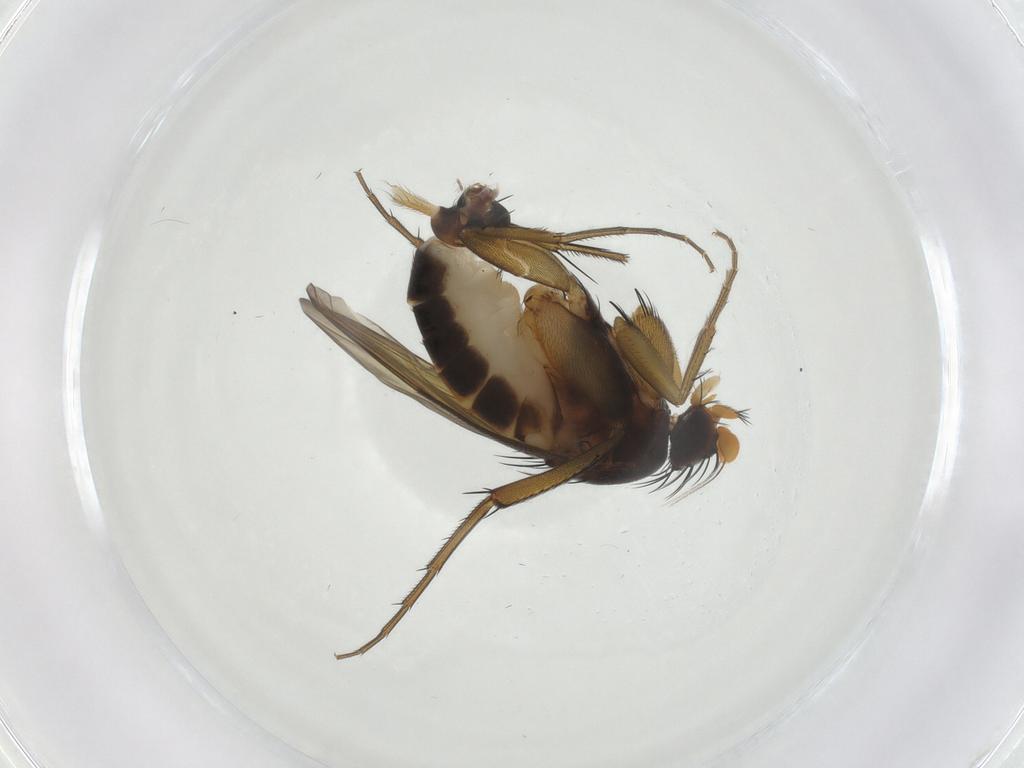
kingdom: Animalia
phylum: Arthropoda
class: Insecta
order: Diptera
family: Phoridae
